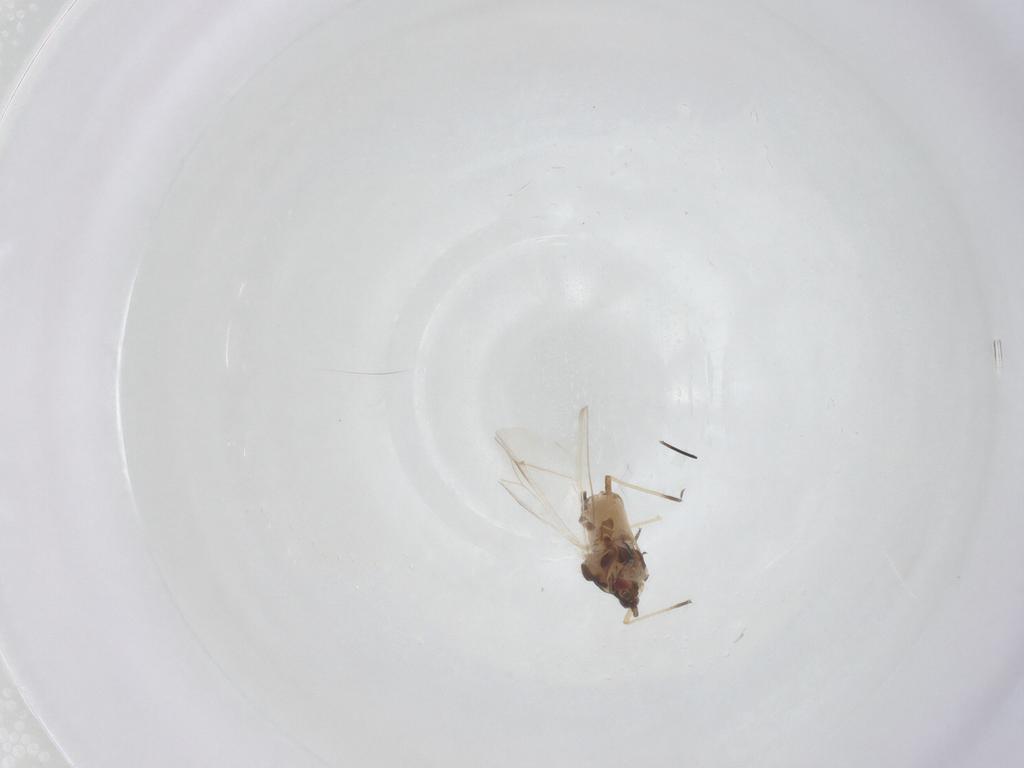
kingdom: Animalia
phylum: Arthropoda
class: Insecta
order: Hemiptera
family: Aphididae
